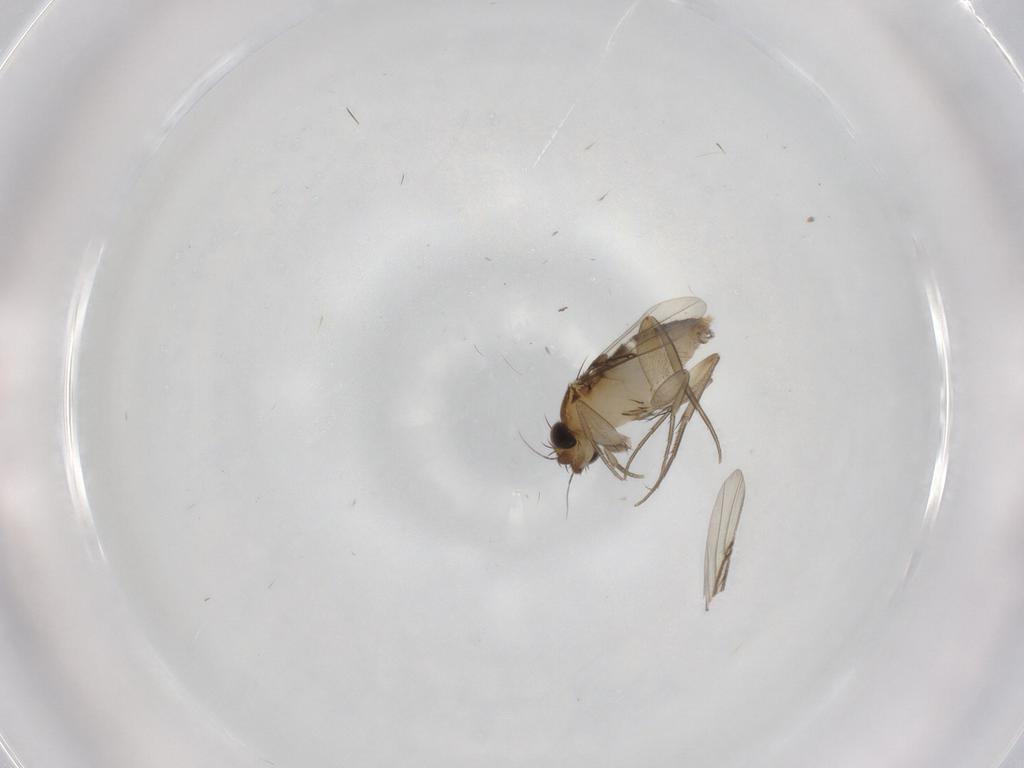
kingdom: Animalia
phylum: Arthropoda
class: Insecta
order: Diptera
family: Phoridae
